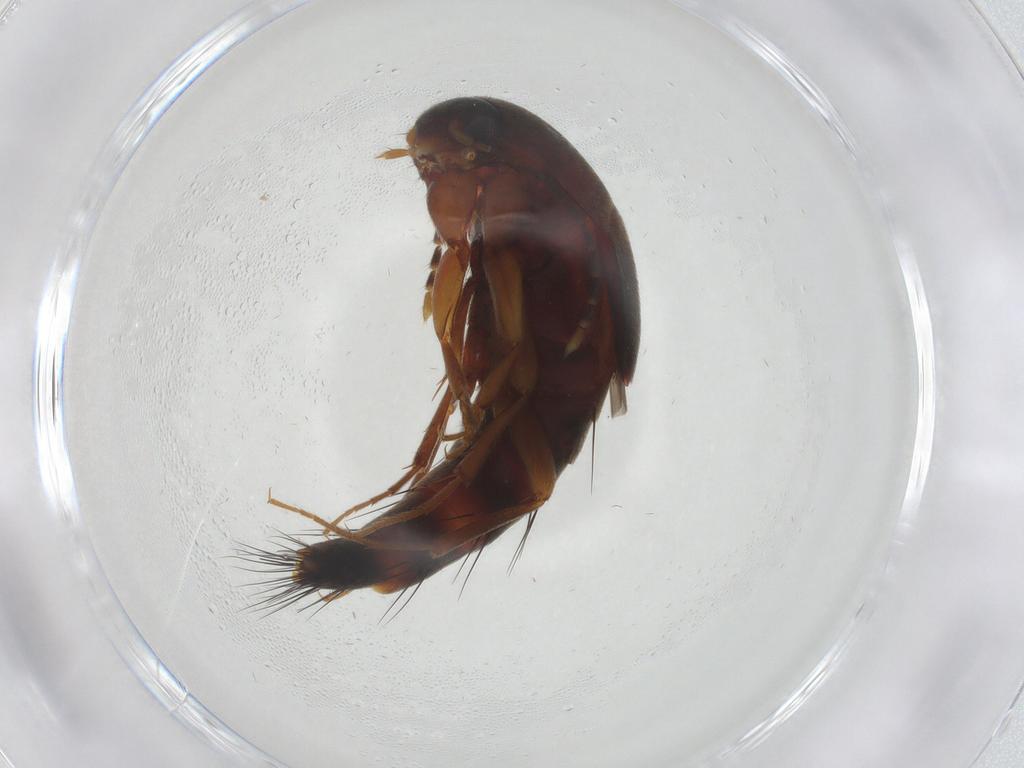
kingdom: Animalia
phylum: Arthropoda
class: Insecta
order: Coleoptera
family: Staphylinidae
